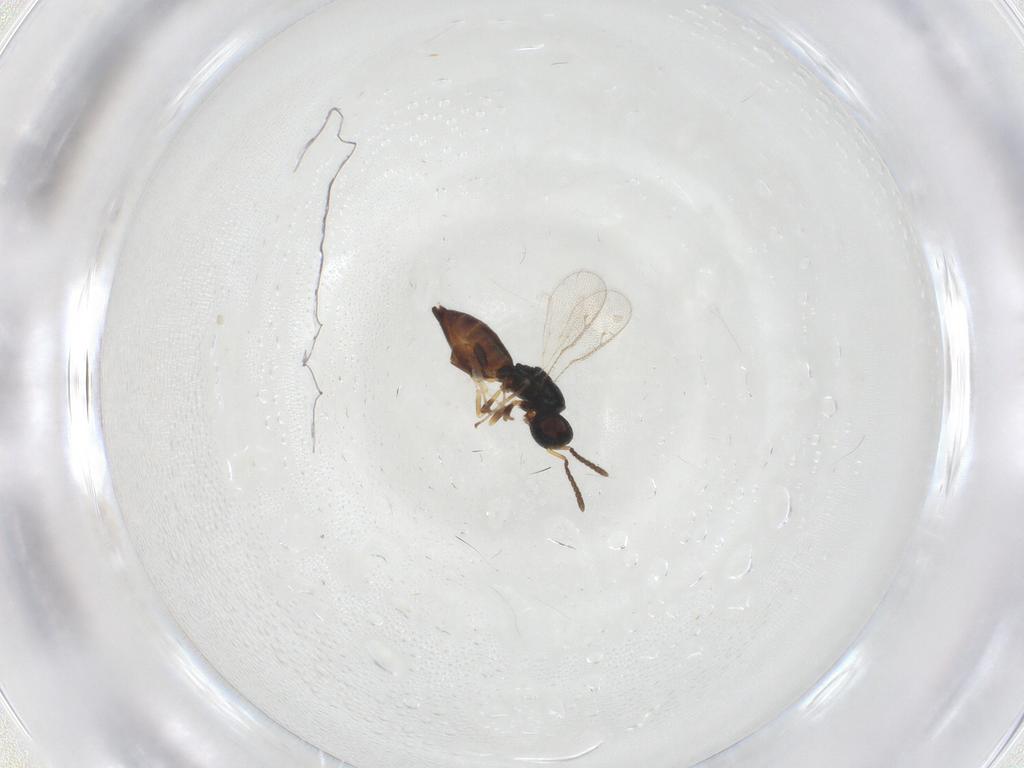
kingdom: Animalia
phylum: Arthropoda
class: Insecta
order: Hymenoptera
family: Pteromalidae
